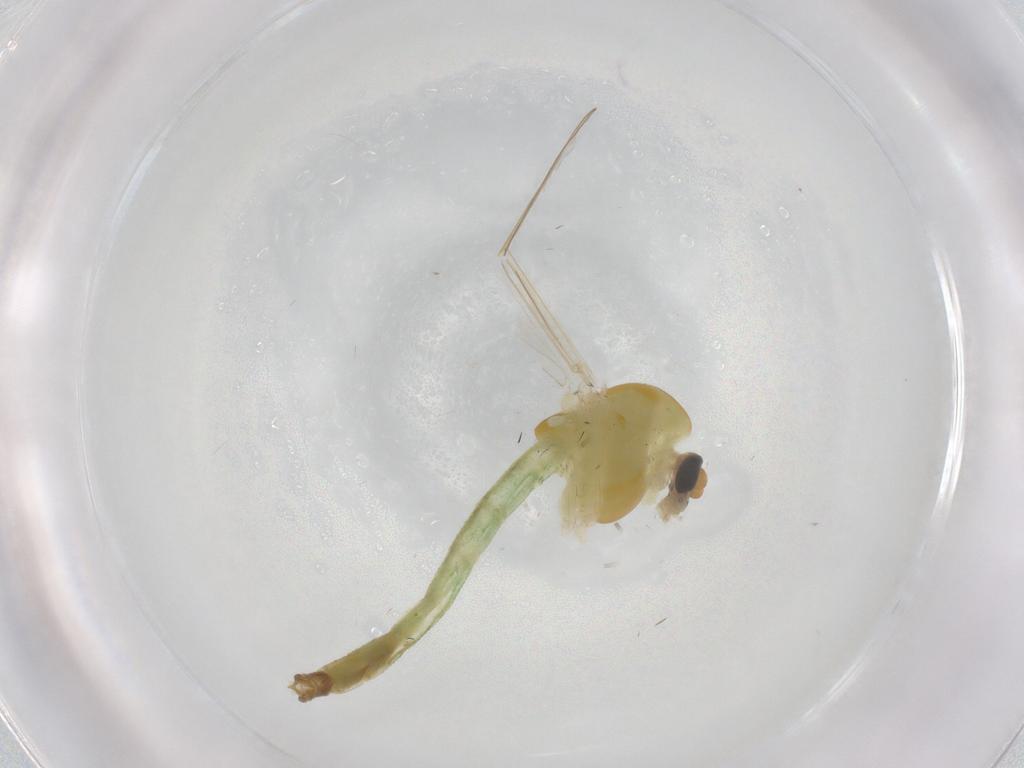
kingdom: Animalia
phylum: Arthropoda
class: Insecta
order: Diptera
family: Chironomidae
